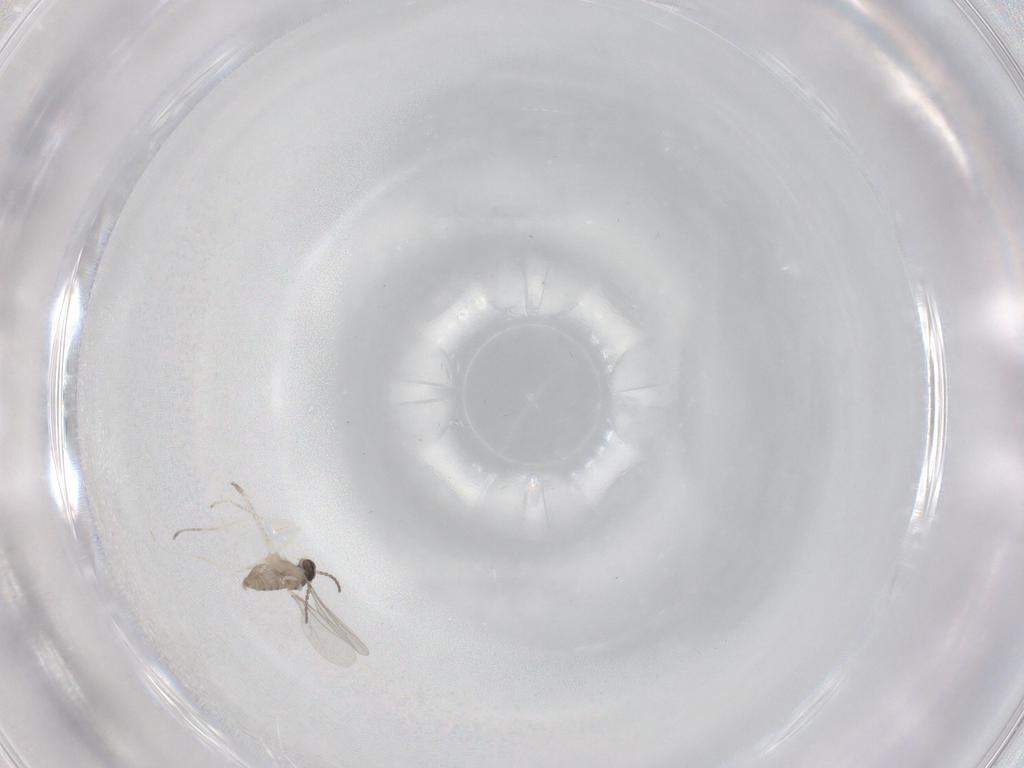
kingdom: Animalia
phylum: Arthropoda
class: Insecta
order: Diptera
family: Cecidomyiidae
